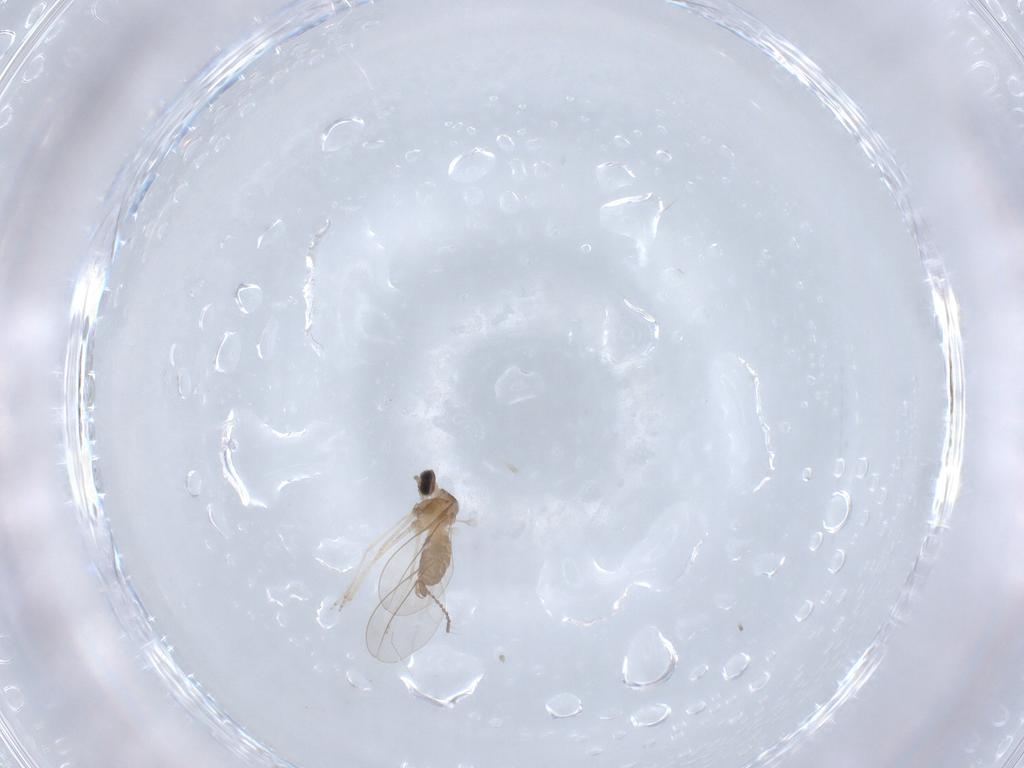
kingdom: Animalia
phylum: Arthropoda
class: Insecta
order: Diptera
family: Cecidomyiidae
